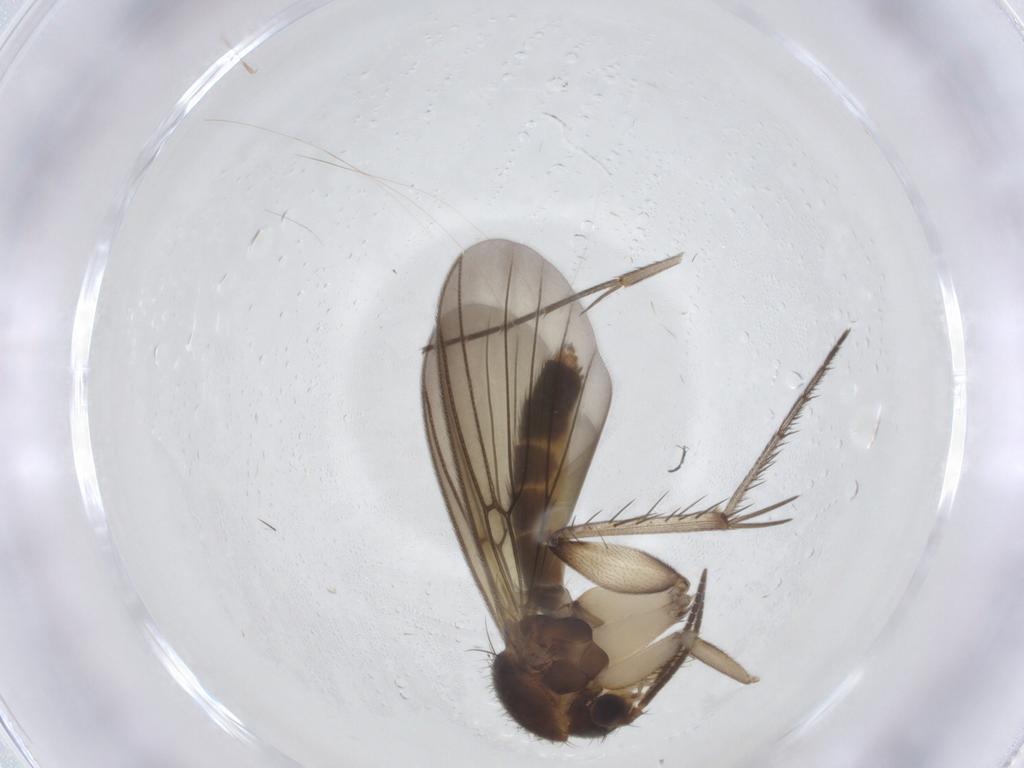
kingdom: Animalia
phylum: Arthropoda
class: Insecta
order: Diptera
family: Mycetophilidae
